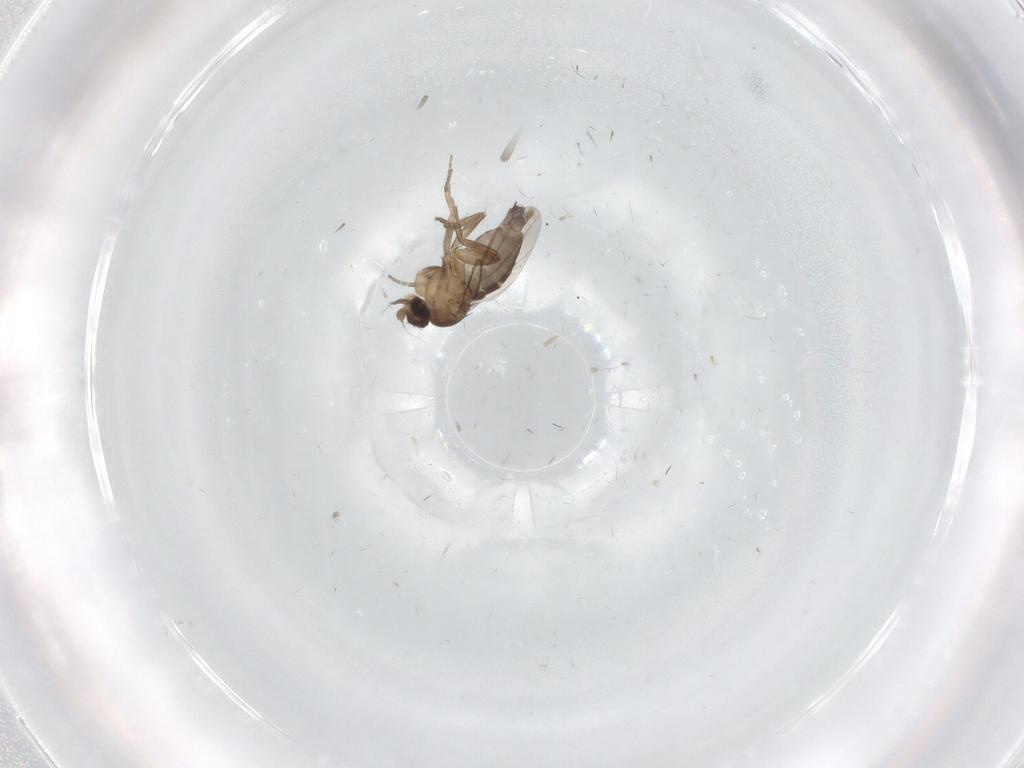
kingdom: Animalia
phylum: Arthropoda
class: Insecta
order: Diptera
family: Phoridae
